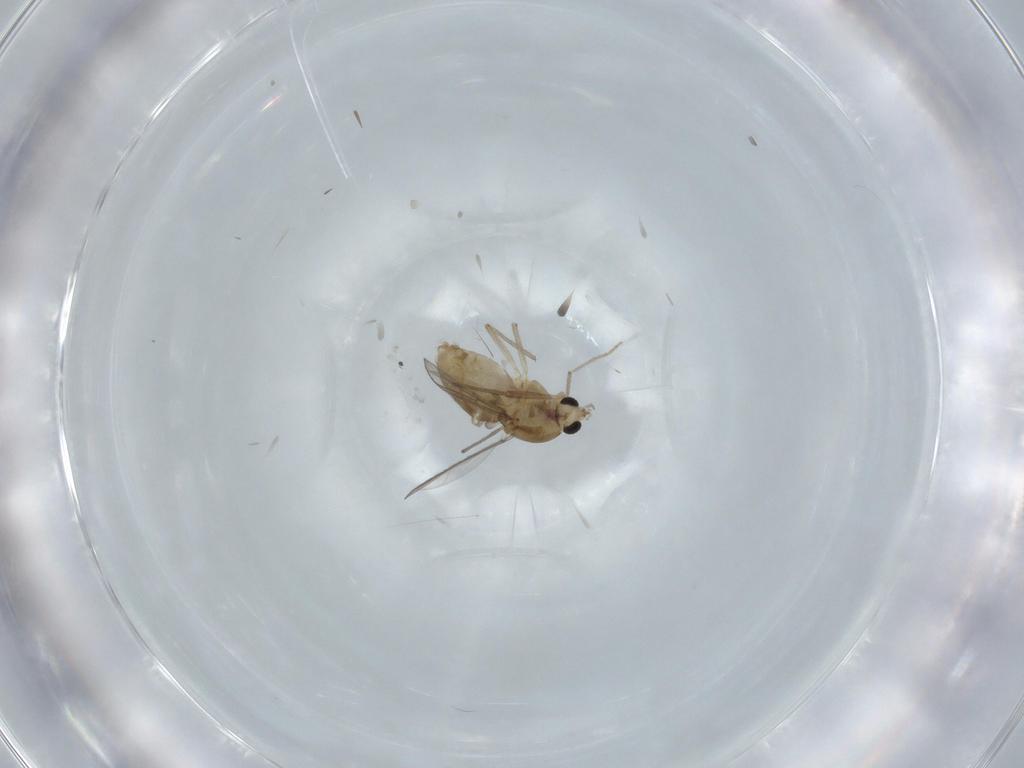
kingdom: Animalia
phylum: Arthropoda
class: Insecta
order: Diptera
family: Chironomidae
